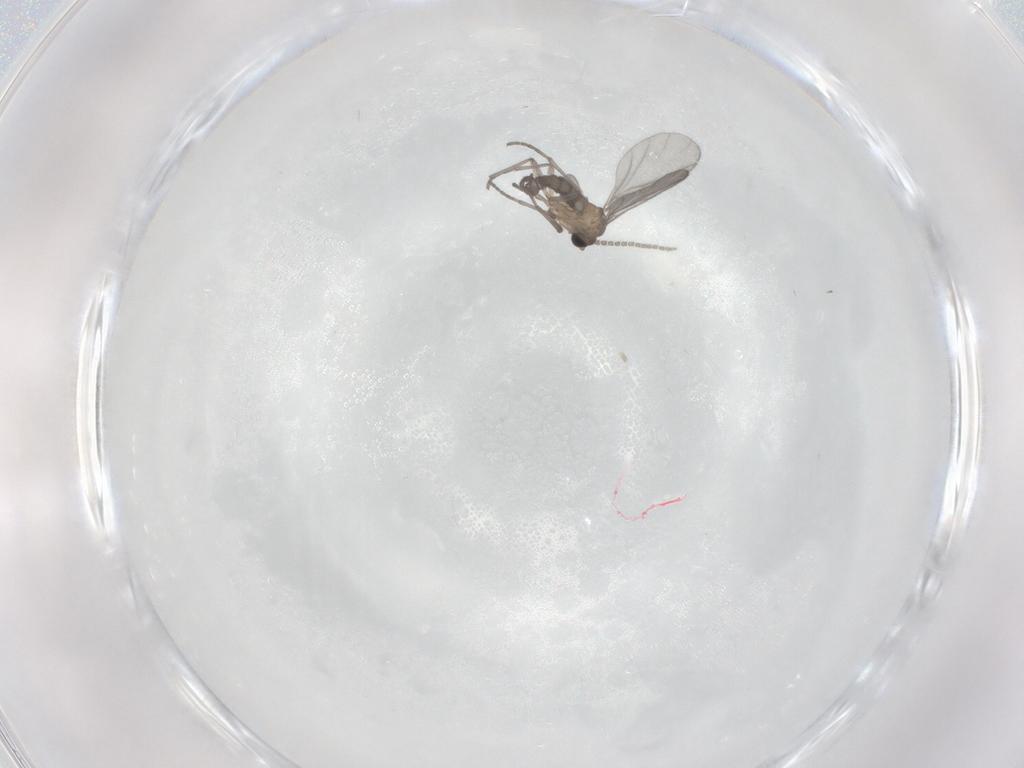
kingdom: Animalia
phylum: Arthropoda
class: Insecta
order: Diptera
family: Sciaridae
